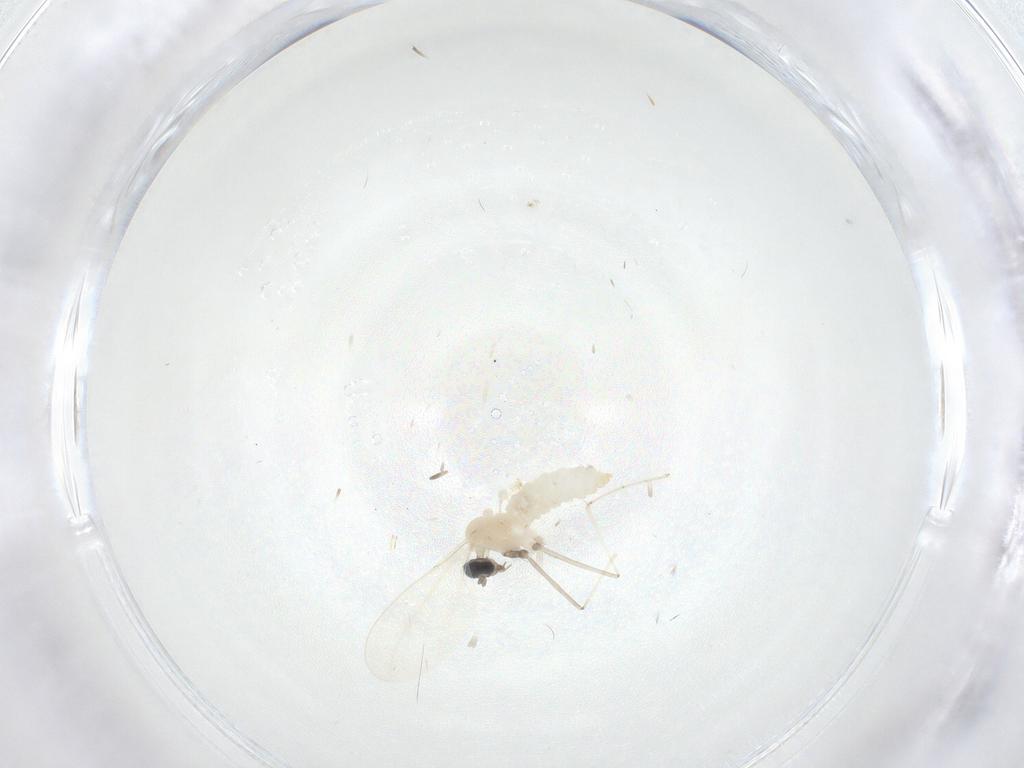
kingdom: Animalia
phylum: Arthropoda
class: Insecta
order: Diptera
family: Cecidomyiidae
